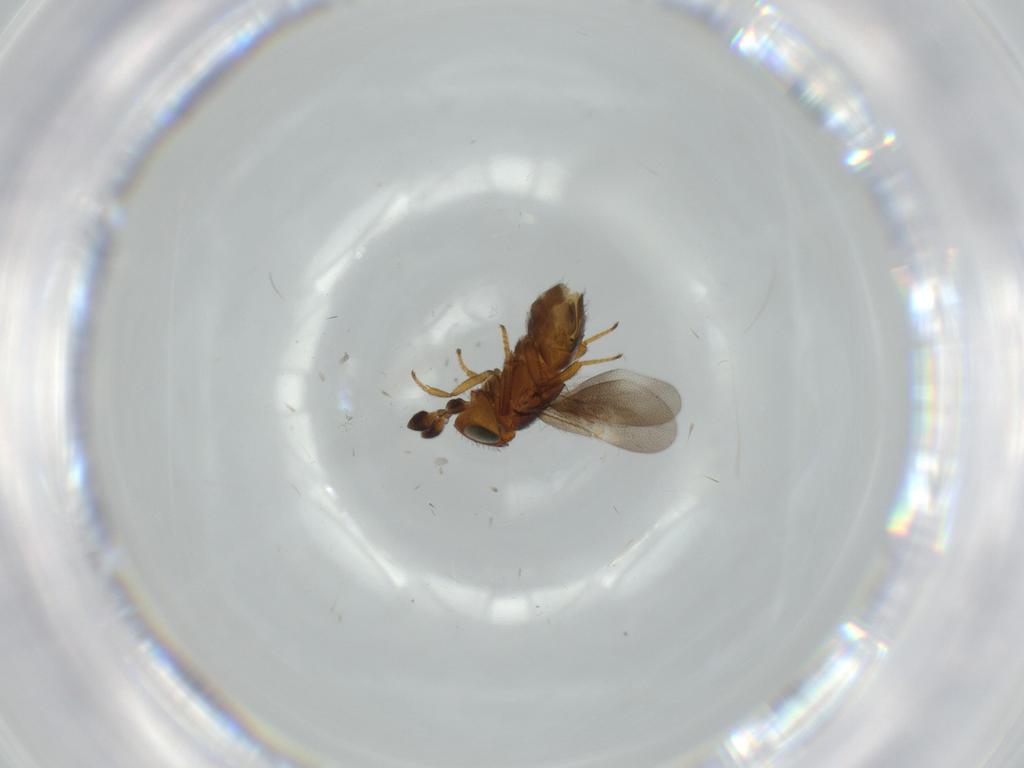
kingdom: Animalia
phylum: Arthropoda
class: Insecta
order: Hymenoptera
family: Encyrtidae
